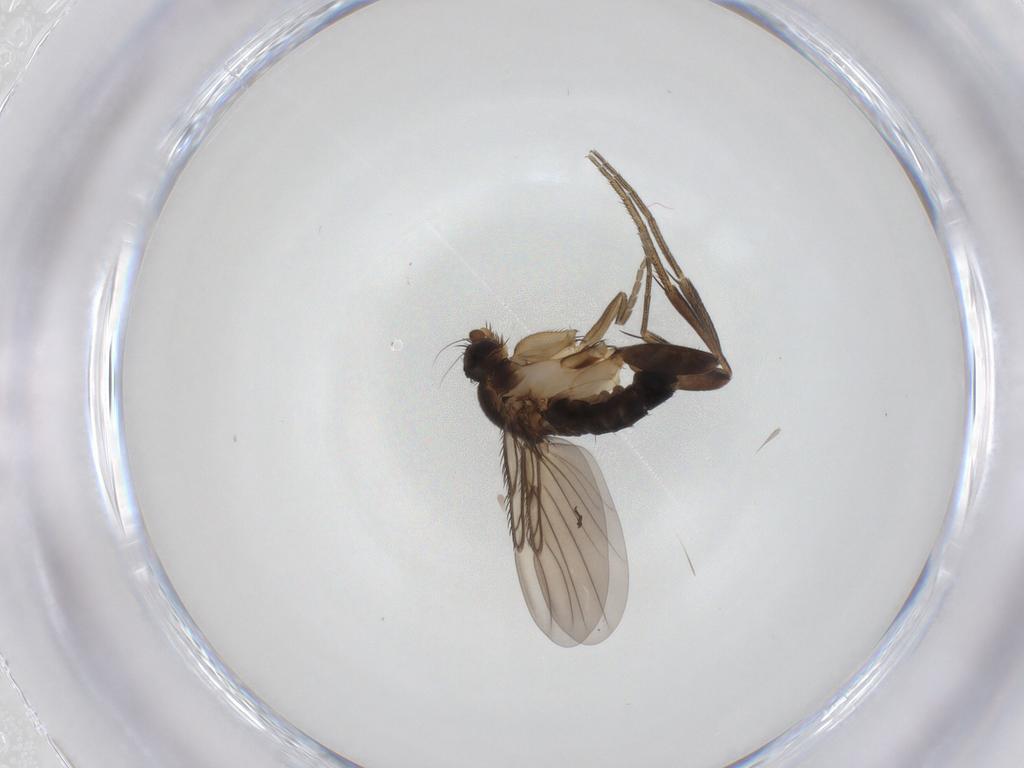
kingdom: Animalia
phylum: Arthropoda
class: Insecta
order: Diptera
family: Phoridae
